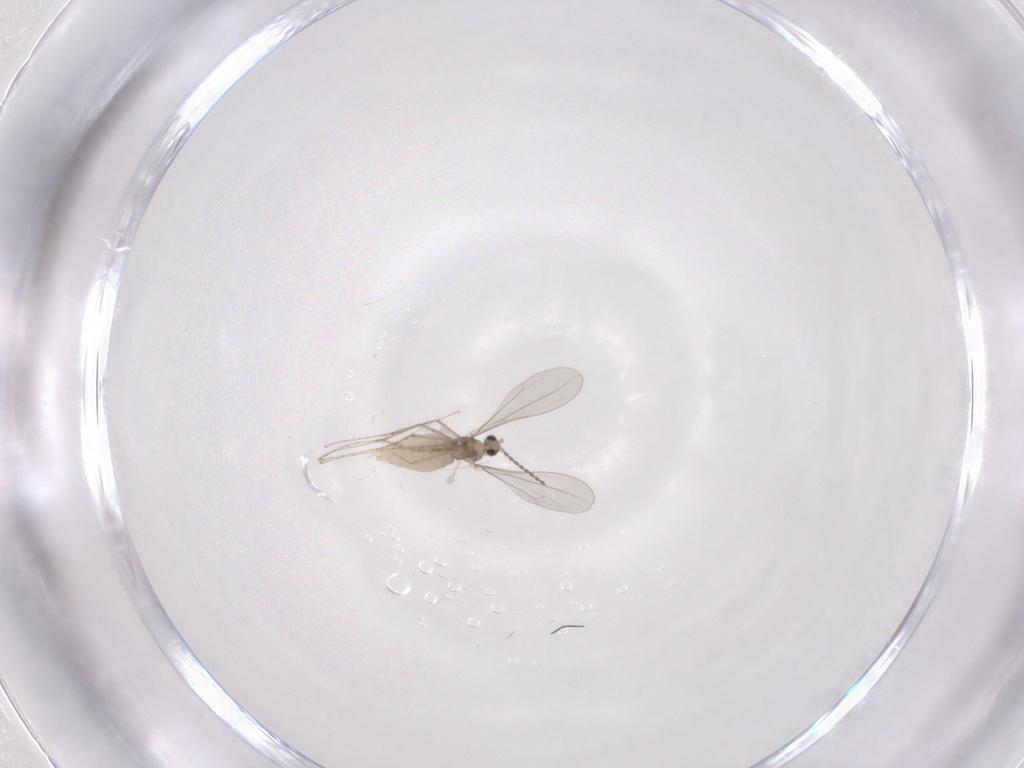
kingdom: Animalia
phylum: Arthropoda
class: Insecta
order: Diptera
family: Cecidomyiidae
